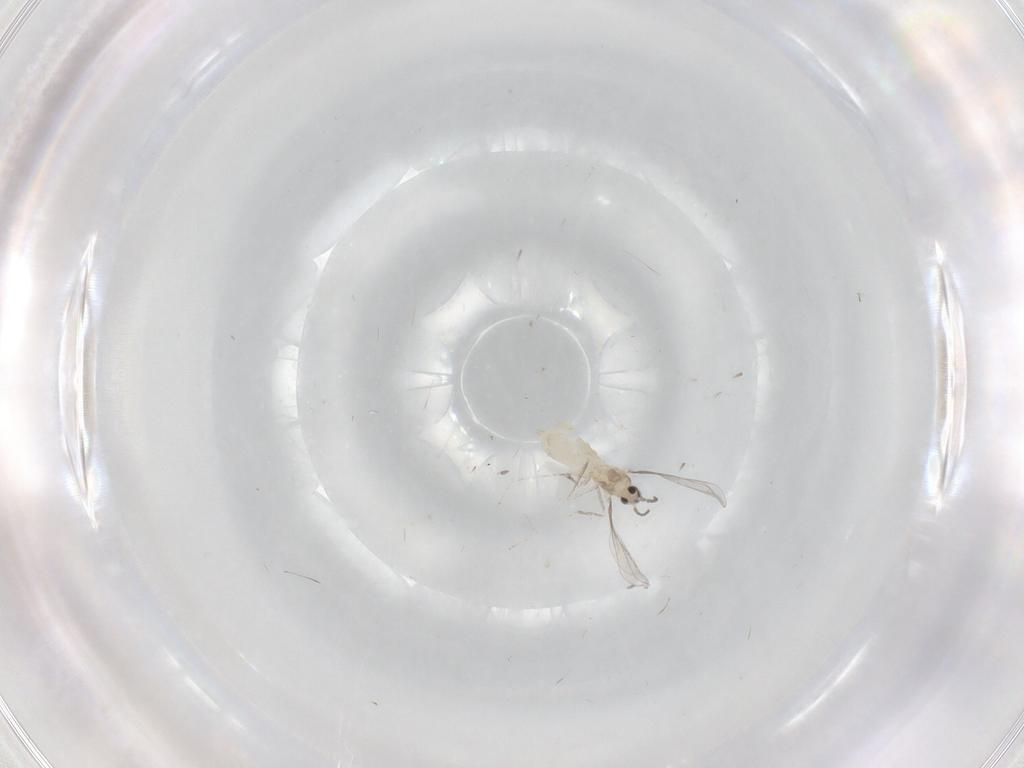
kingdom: Animalia
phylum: Arthropoda
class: Insecta
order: Diptera
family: Cecidomyiidae
